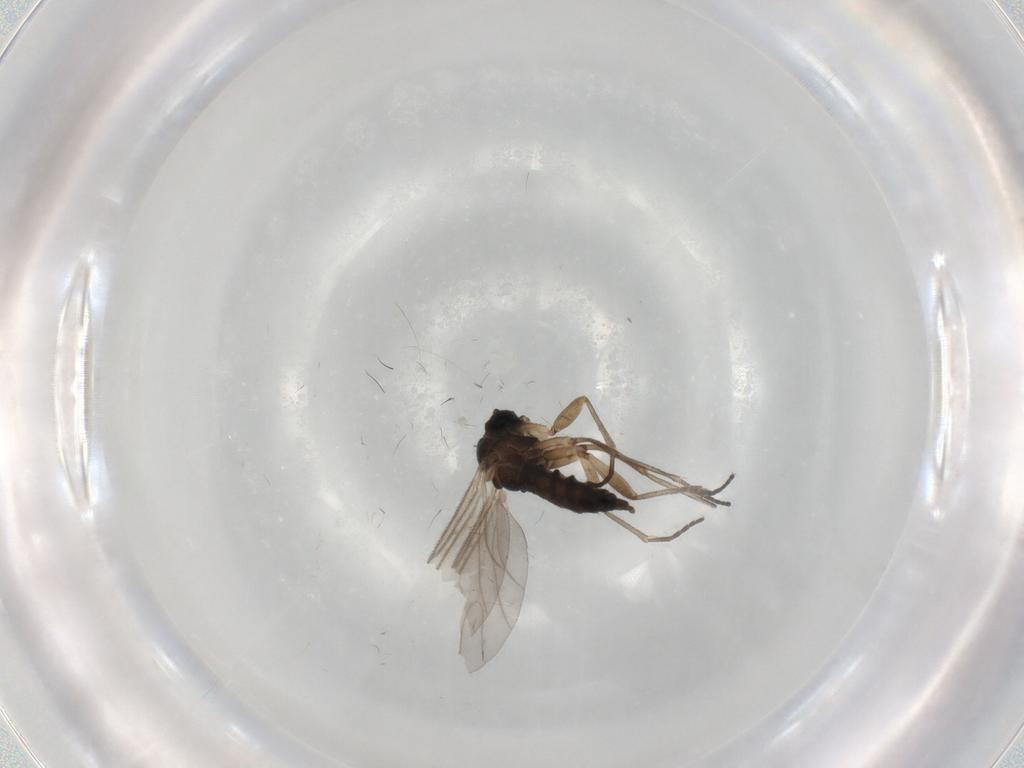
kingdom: Animalia
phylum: Arthropoda
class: Insecta
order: Diptera
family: Sciaridae
